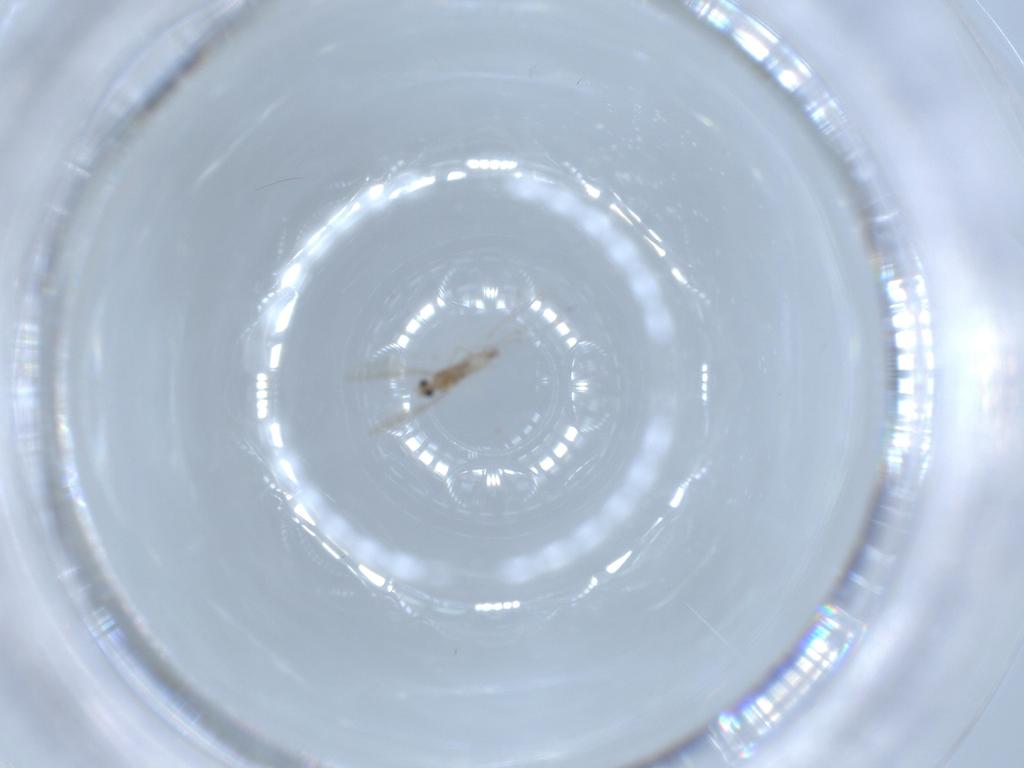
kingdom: Animalia
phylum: Arthropoda
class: Insecta
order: Diptera
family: Cecidomyiidae
